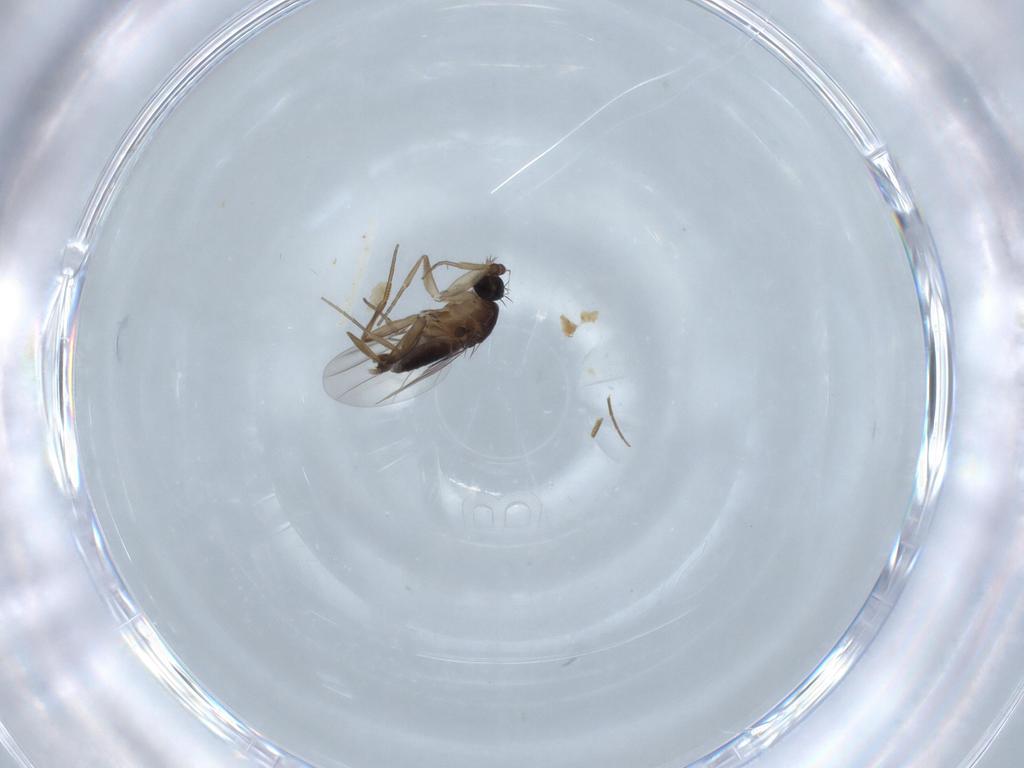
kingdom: Animalia
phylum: Arthropoda
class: Insecta
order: Diptera
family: Phoridae
